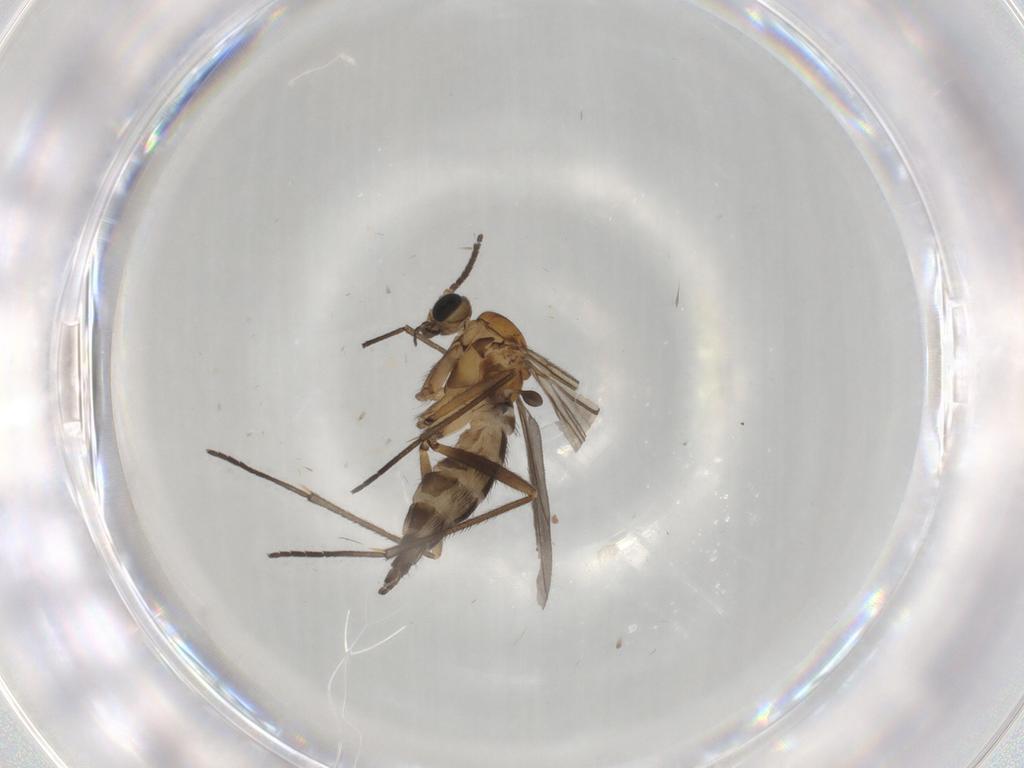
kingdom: Animalia
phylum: Arthropoda
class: Insecta
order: Diptera
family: Sciaridae
